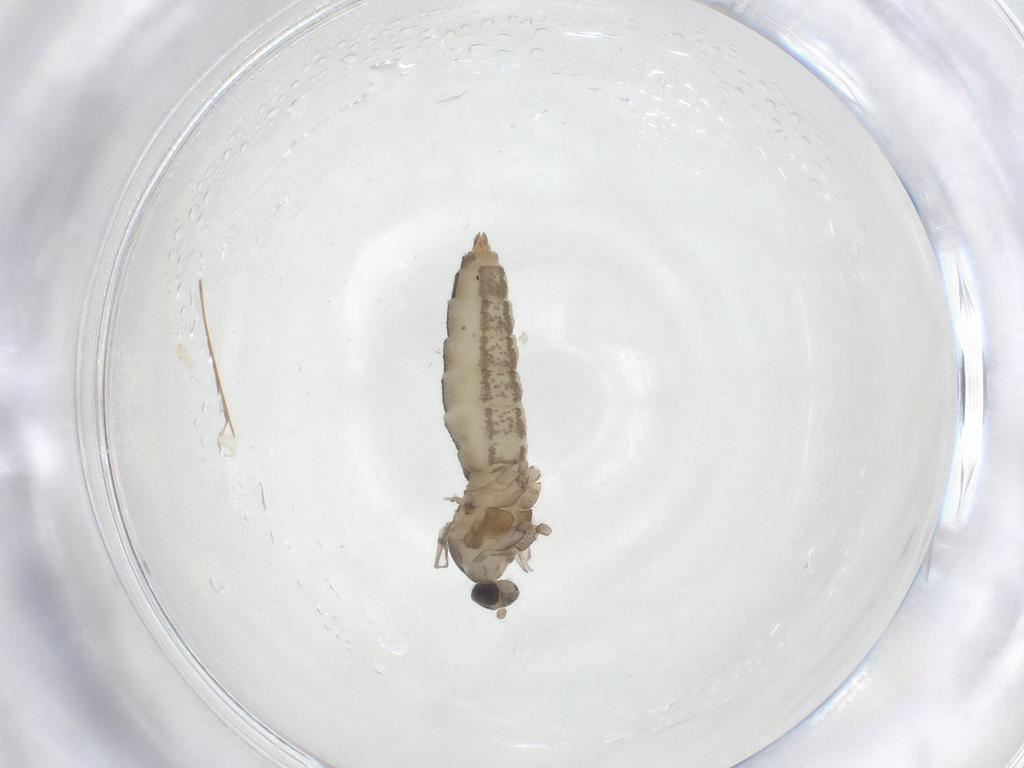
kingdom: Animalia
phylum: Arthropoda
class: Insecta
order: Diptera
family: Cecidomyiidae
